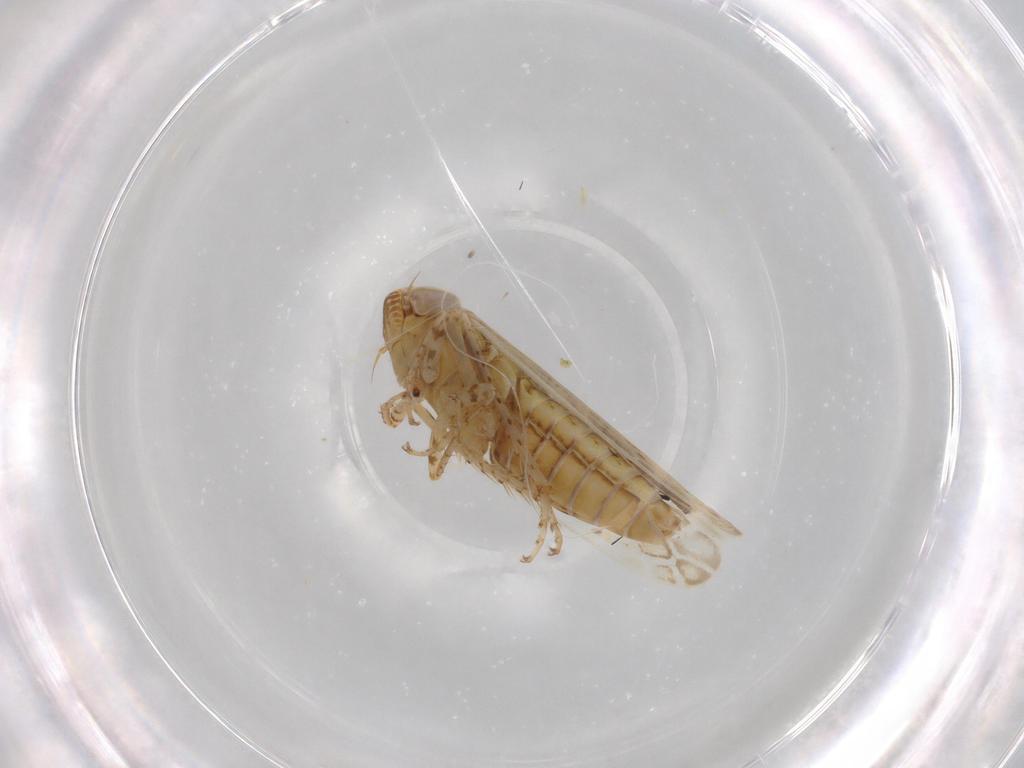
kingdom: Animalia
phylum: Arthropoda
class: Insecta
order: Hemiptera
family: Cicadellidae
